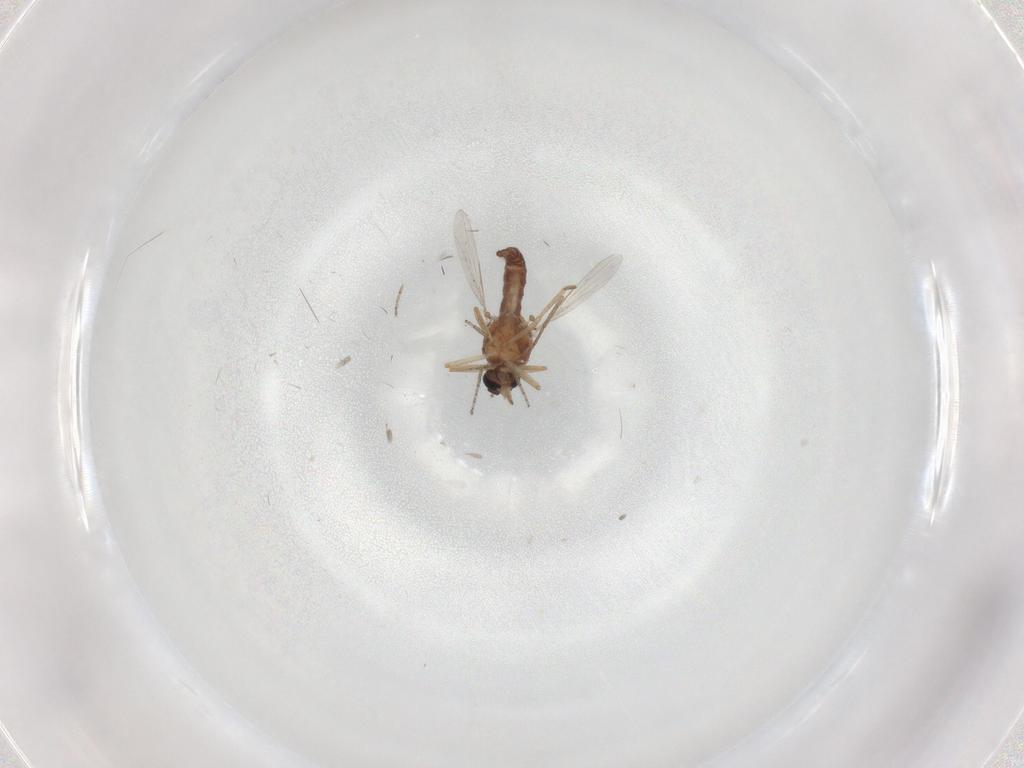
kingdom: Animalia
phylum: Arthropoda
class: Insecta
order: Diptera
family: Ceratopogonidae
